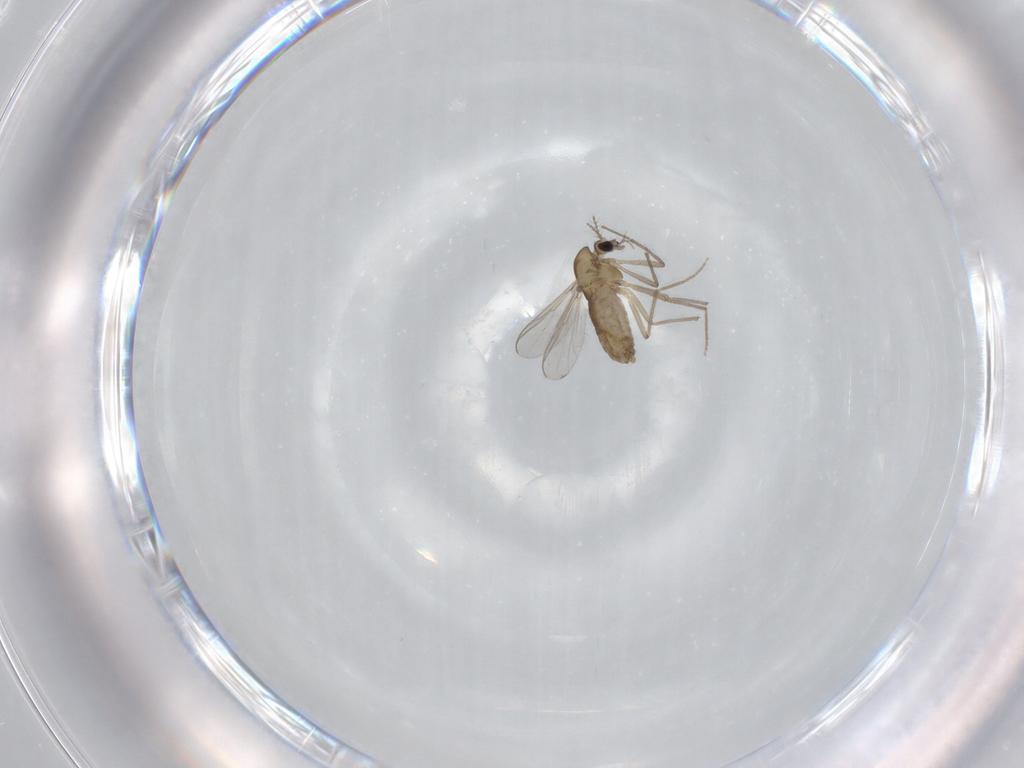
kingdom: Animalia
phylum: Arthropoda
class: Insecta
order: Diptera
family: Chironomidae
